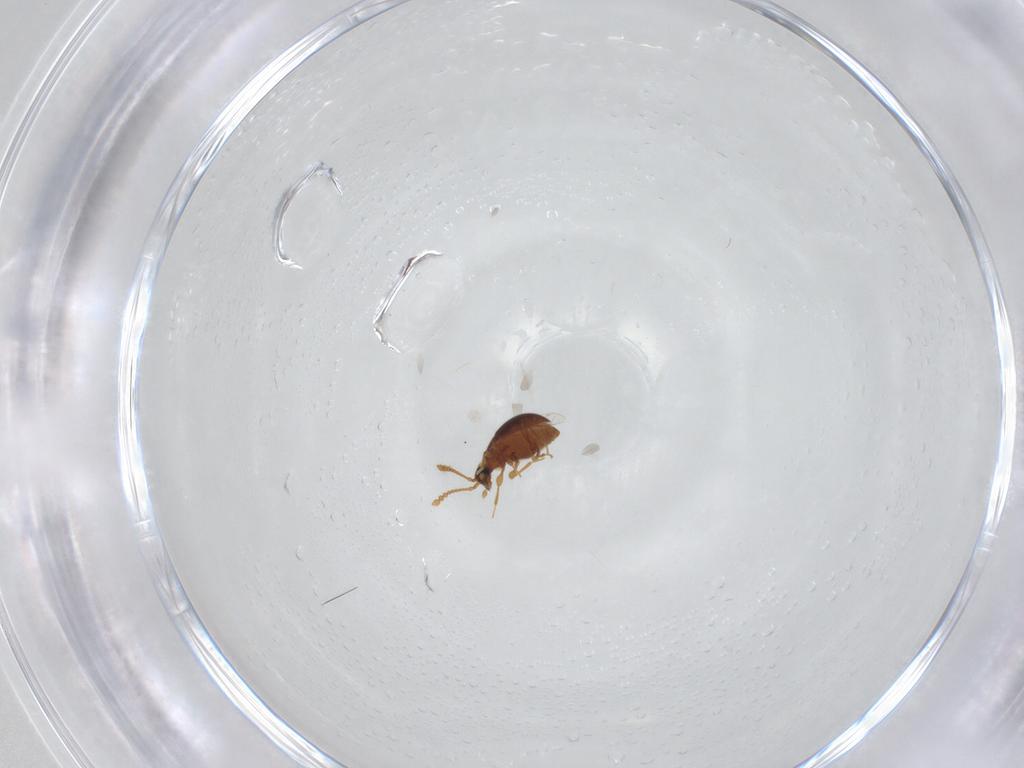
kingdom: Animalia
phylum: Arthropoda
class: Insecta
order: Coleoptera
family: Staphylinidae
